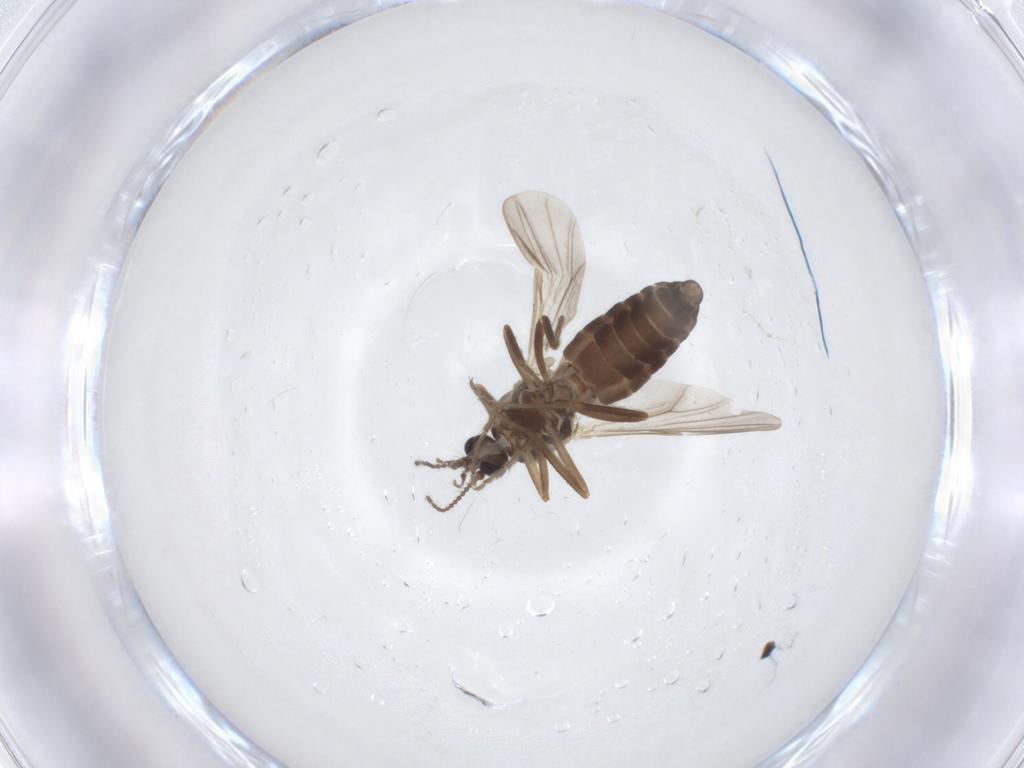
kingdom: Animalia
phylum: Arthropoda
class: Insecta
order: Diptera
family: Ceratopogonidae
